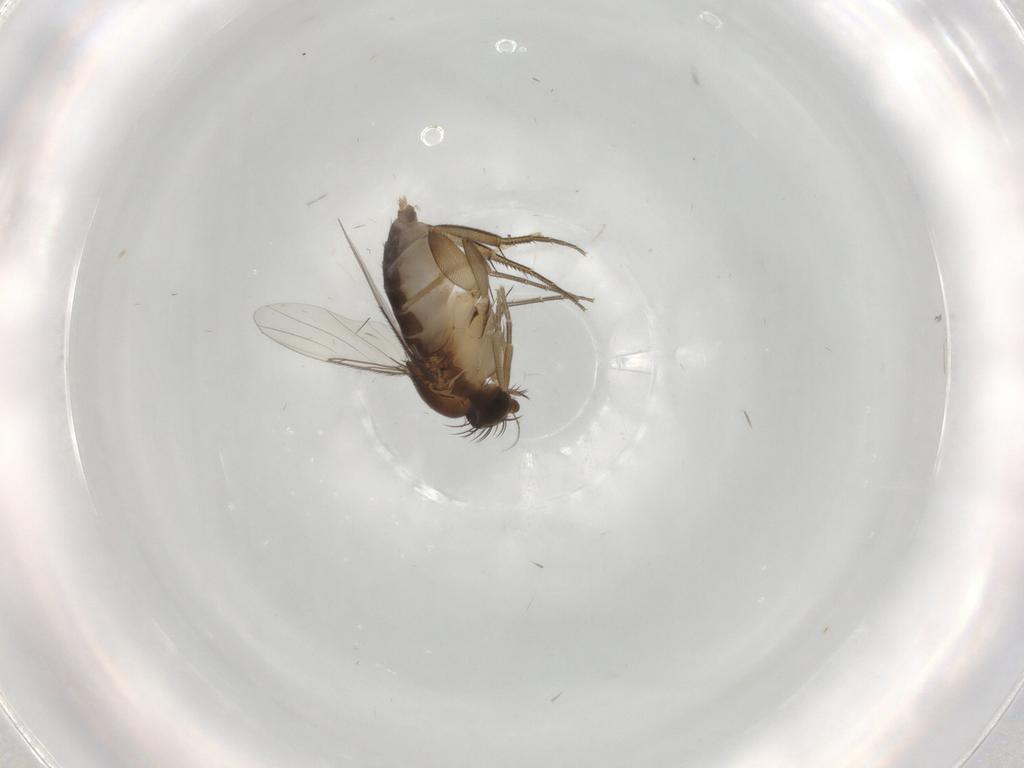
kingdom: Animalia
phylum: Arthropoda
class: Insecta
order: Diptera
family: Chironomidae
